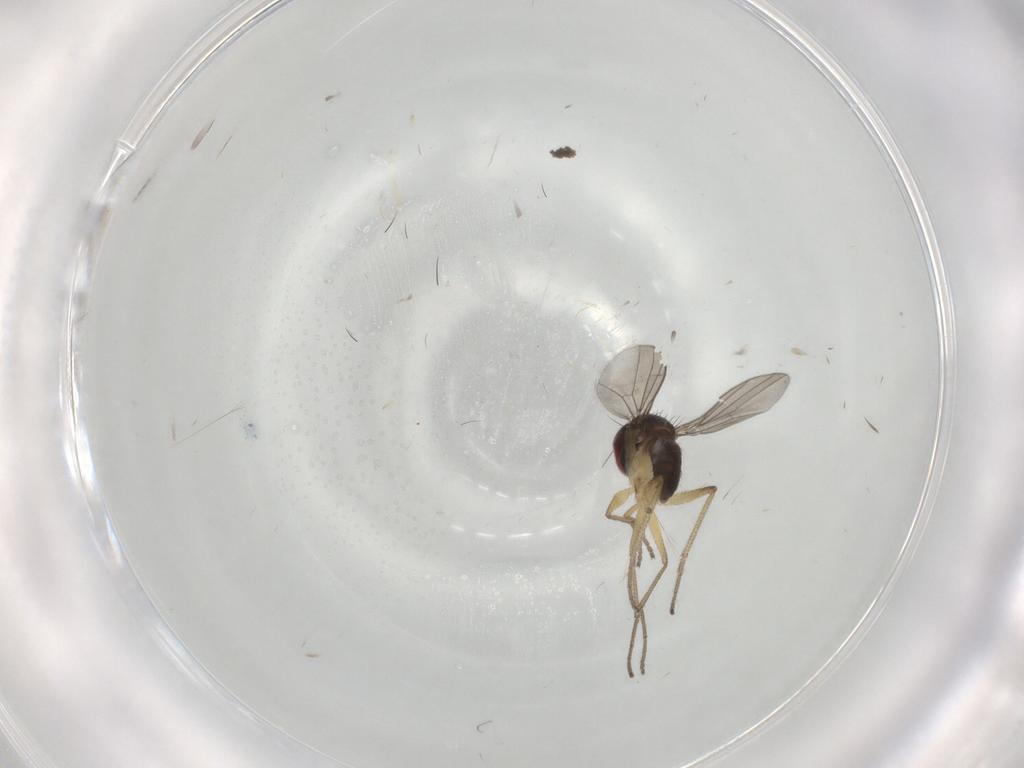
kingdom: Animalia
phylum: Arthropoda
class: Insecta
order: Diptera
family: Dolichopodidae
